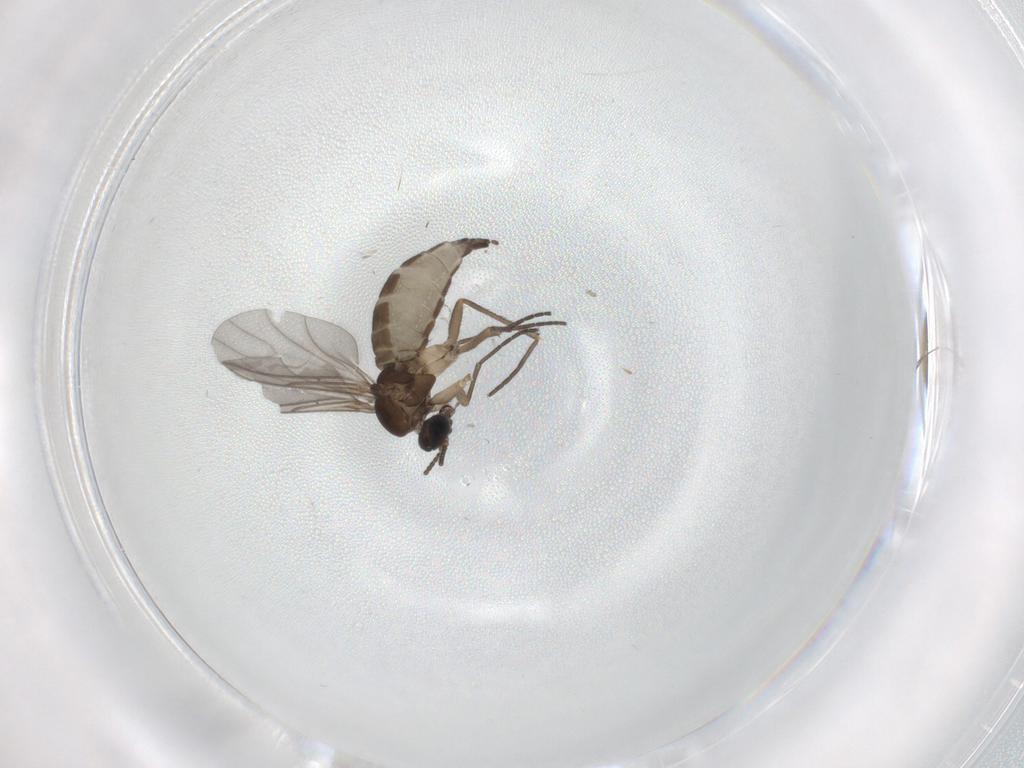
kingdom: Animalia
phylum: Arthropoda
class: Insecta
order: Diptera
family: Sciaridae
